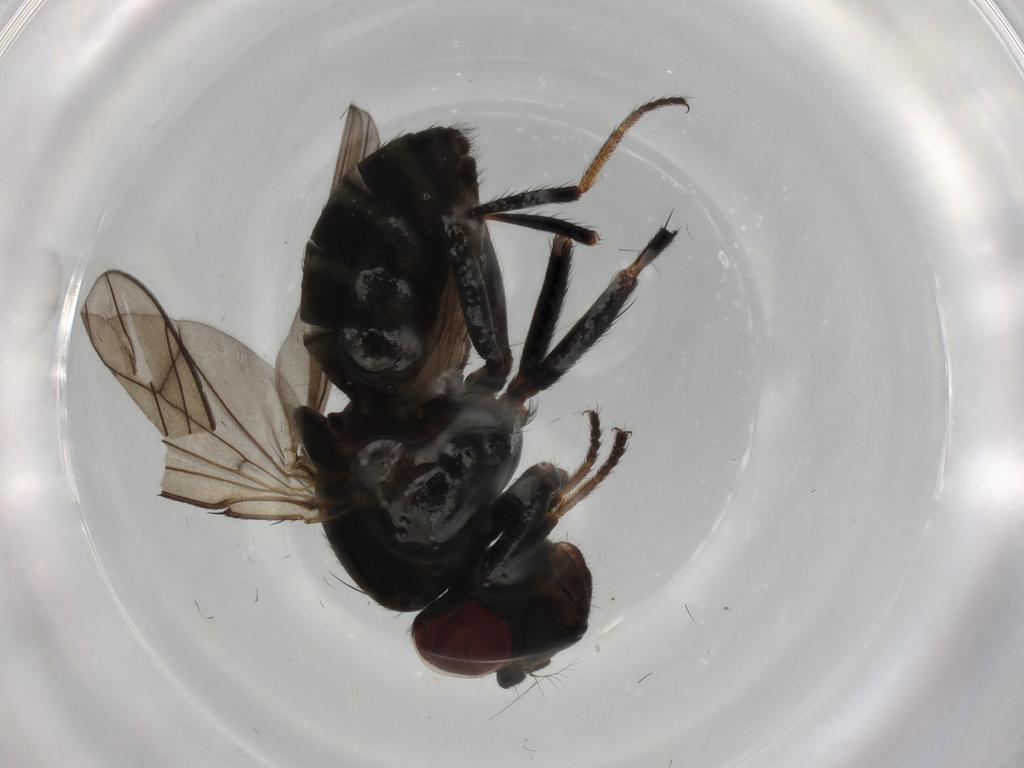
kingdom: Animalia
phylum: Arthropoda
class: Insecta
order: Diptera
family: Ephydridae
